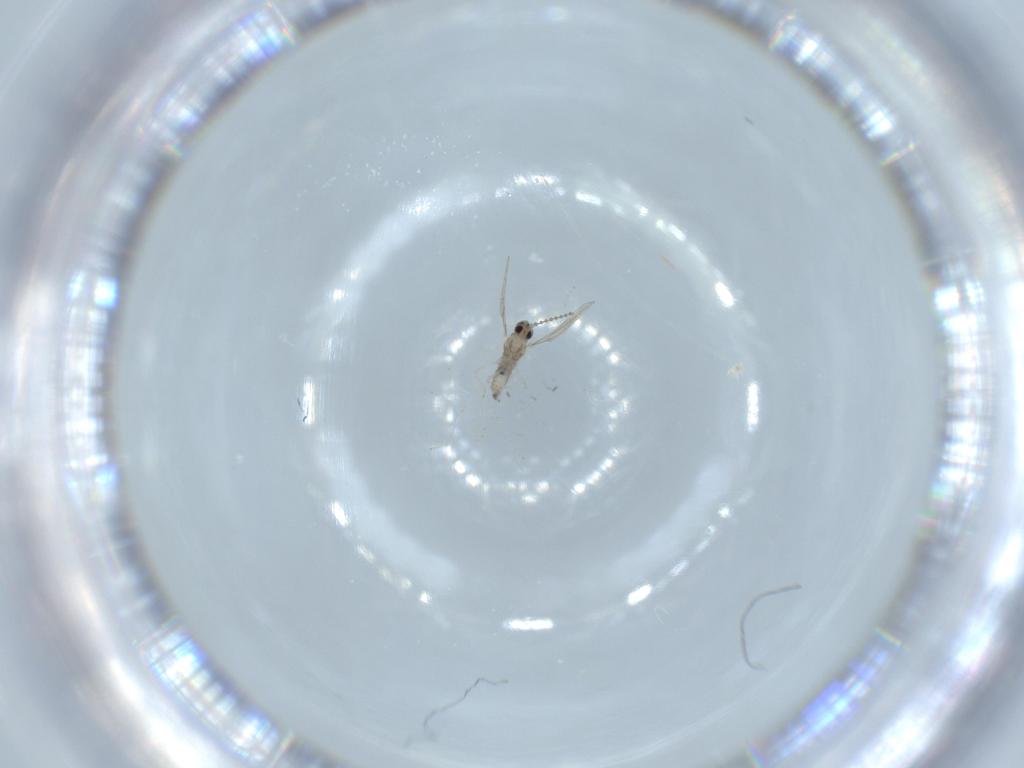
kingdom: Animalia
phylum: Arthropoda
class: Insecta
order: Diptera
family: Cecidomyiidae
